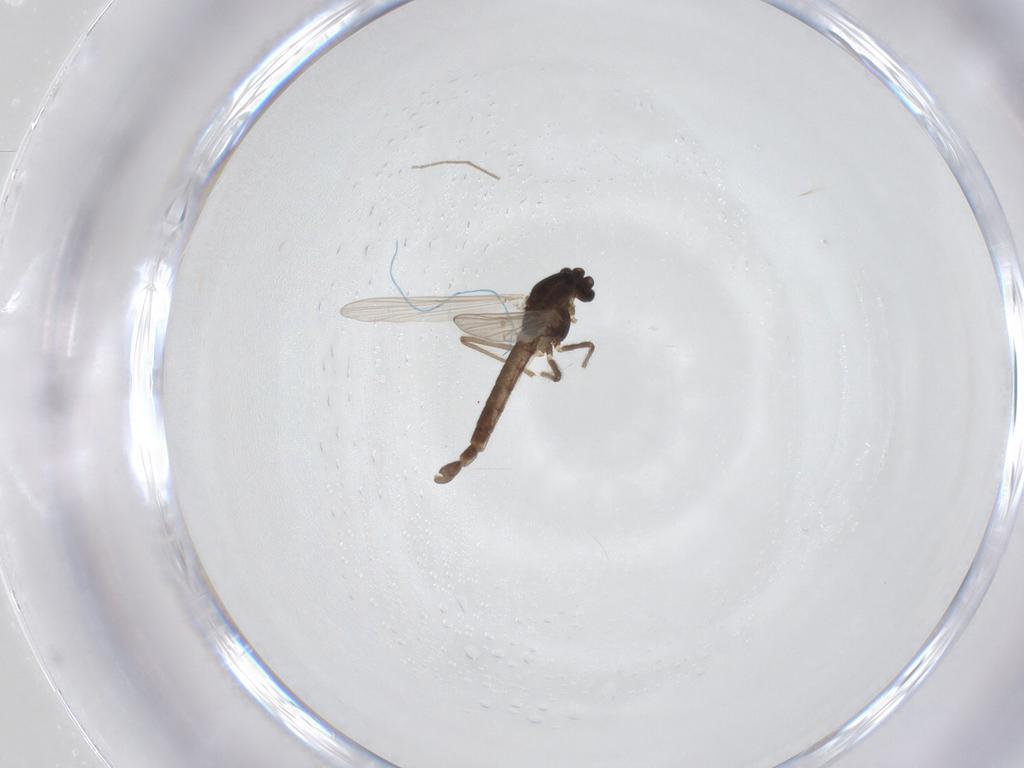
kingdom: Animalia
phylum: Arthropoda
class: Insecta
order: Diptera
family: Chironomidae
